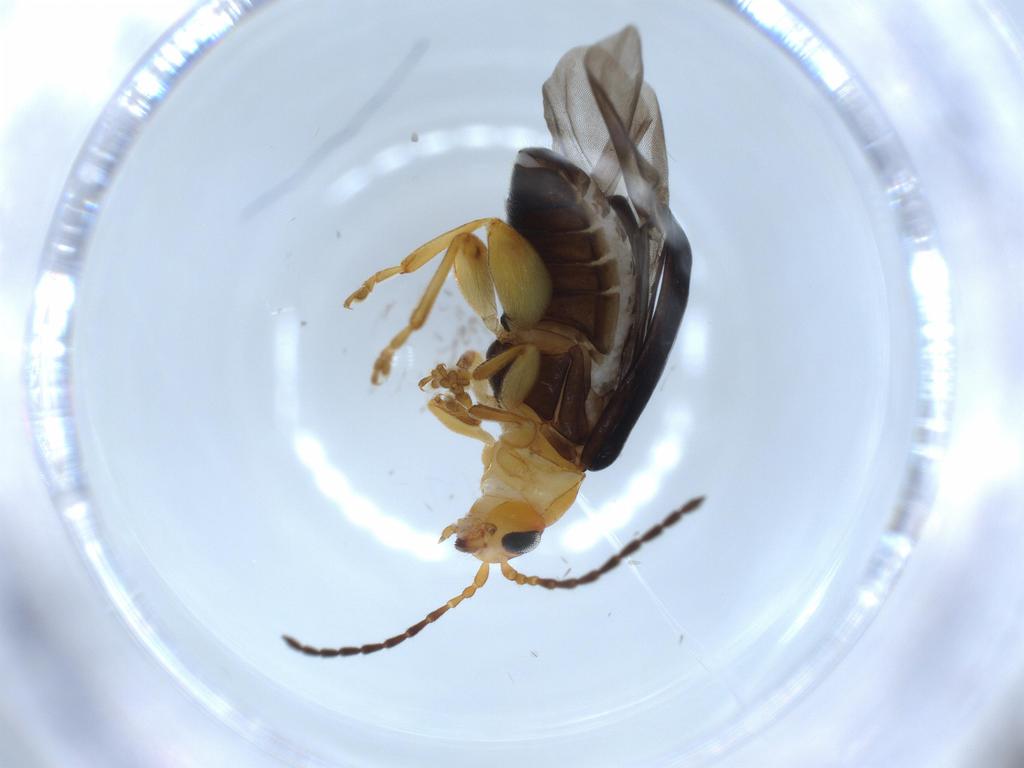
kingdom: Animalia
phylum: Arthropoda
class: Insecta
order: Coleoptera
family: Chrysomelidae
